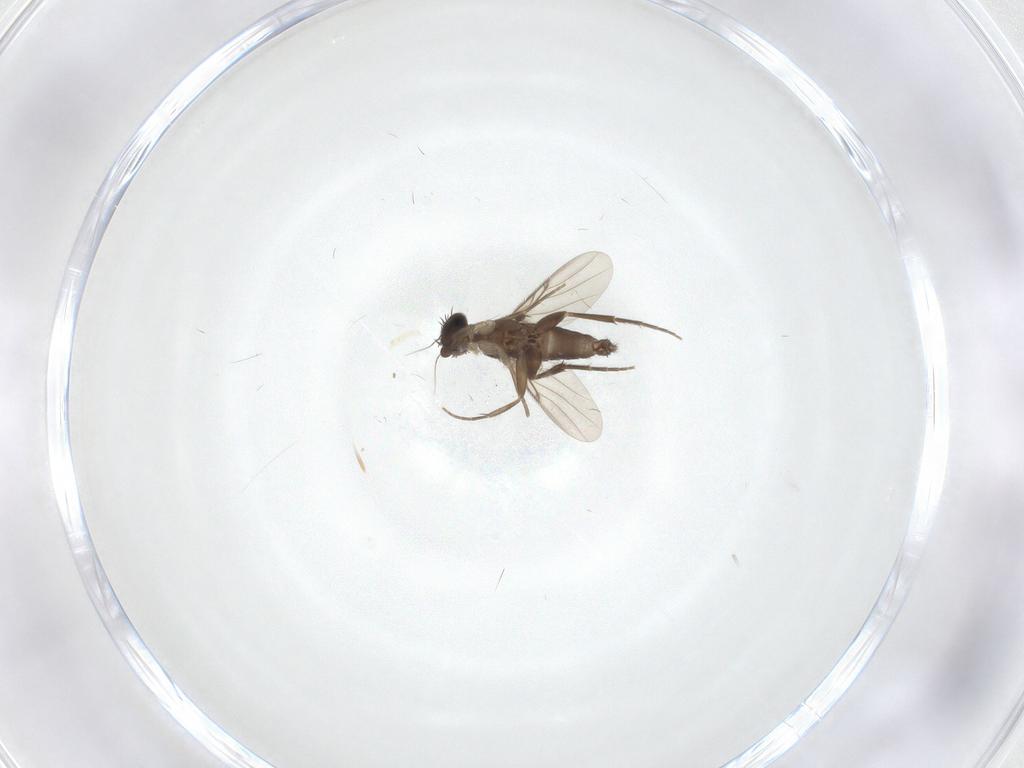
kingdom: Animalia
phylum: Arthropoda
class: Insecta
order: Diptera
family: Phoridae
